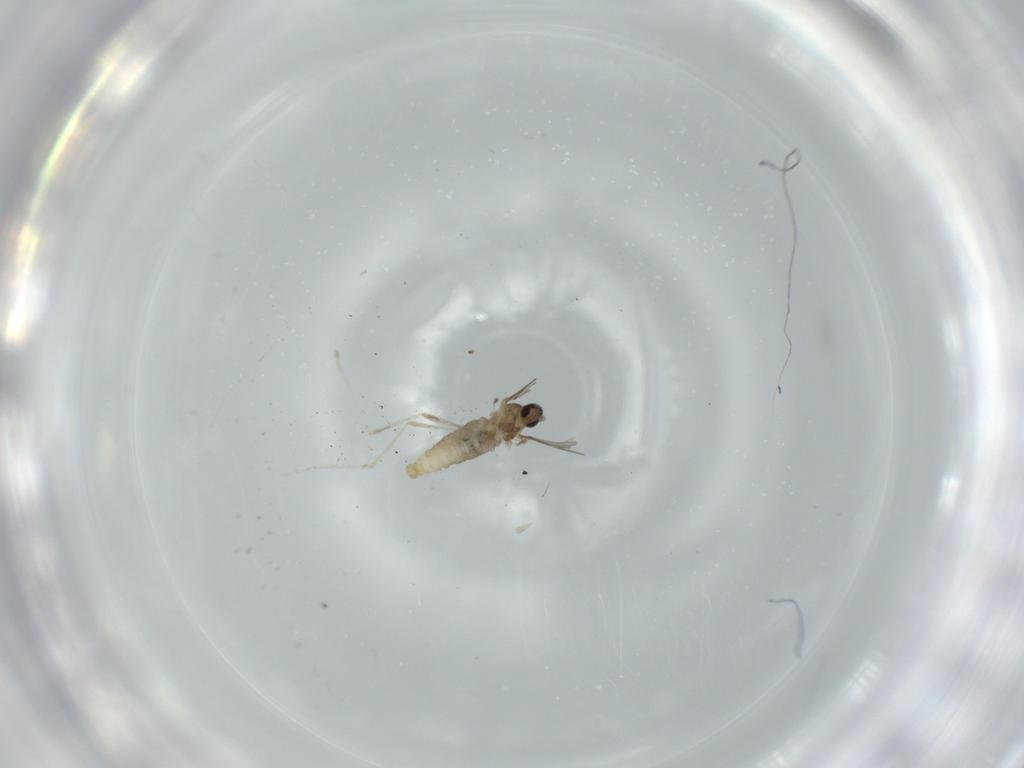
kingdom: Animalia
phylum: Arthropoda
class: Insecta
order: Diptera
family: Cecidomyiidae
